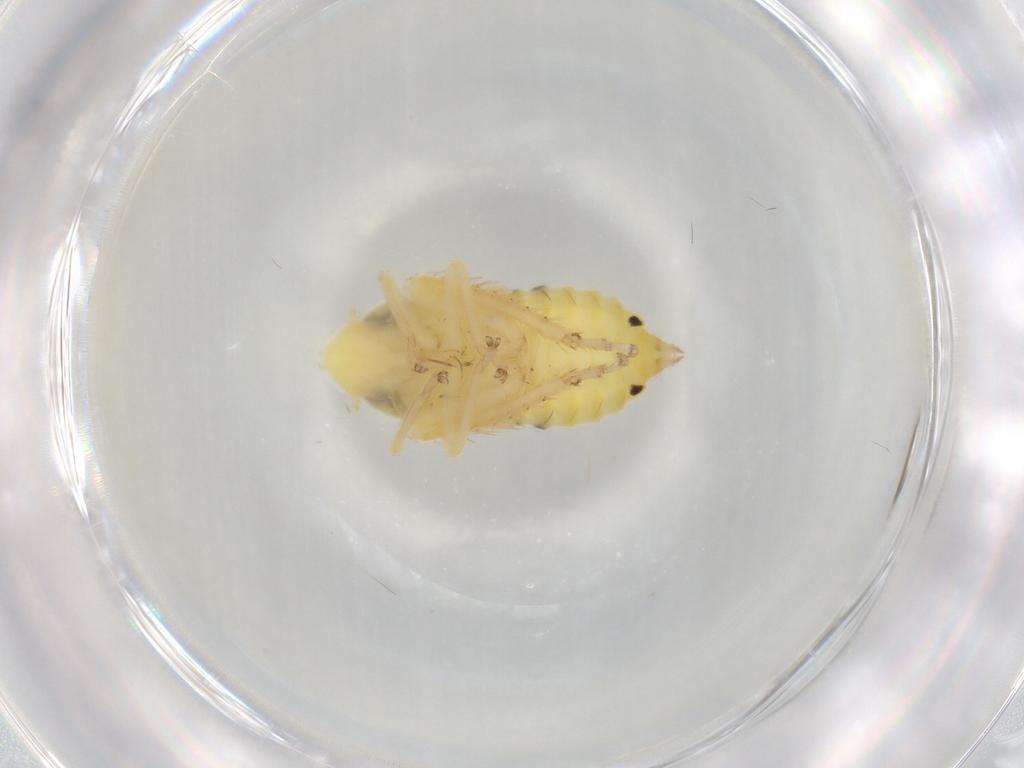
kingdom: Animalia
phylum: Arthropoda
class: Insecta
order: Hemiptera
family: Cicadellidae
